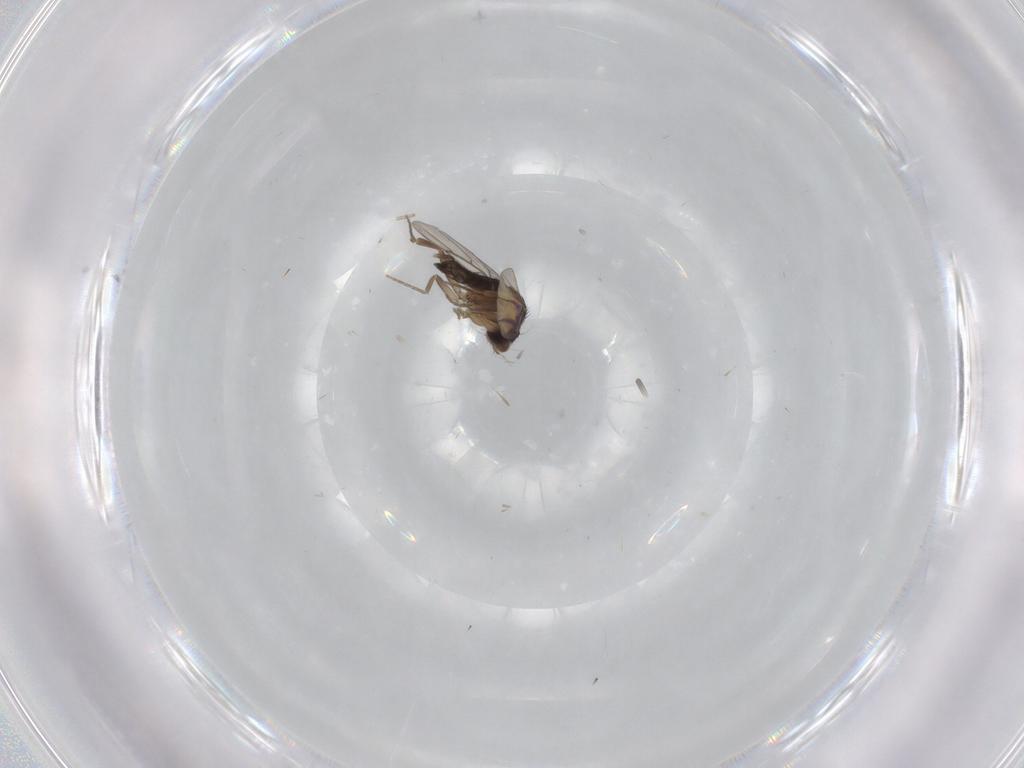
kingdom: Animalia
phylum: Arthropoda
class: Insecta
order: Diptera
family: Phoridae
